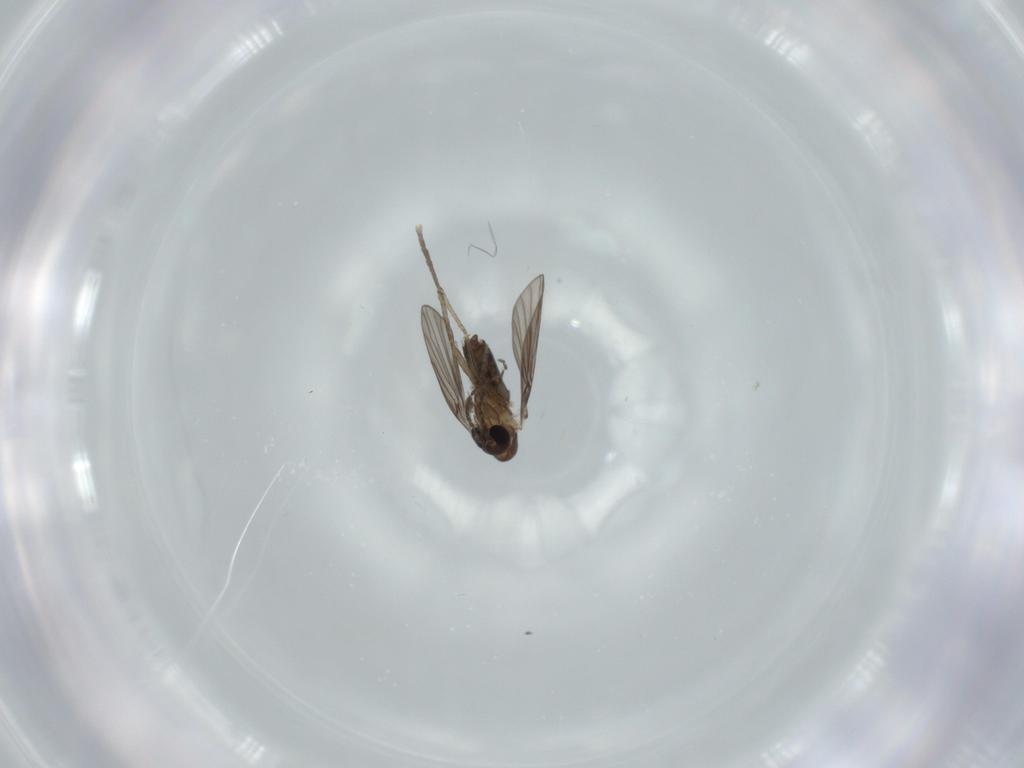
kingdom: Animalia
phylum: Arthropoda
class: Insecta
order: Diptera
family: Psychodidae
